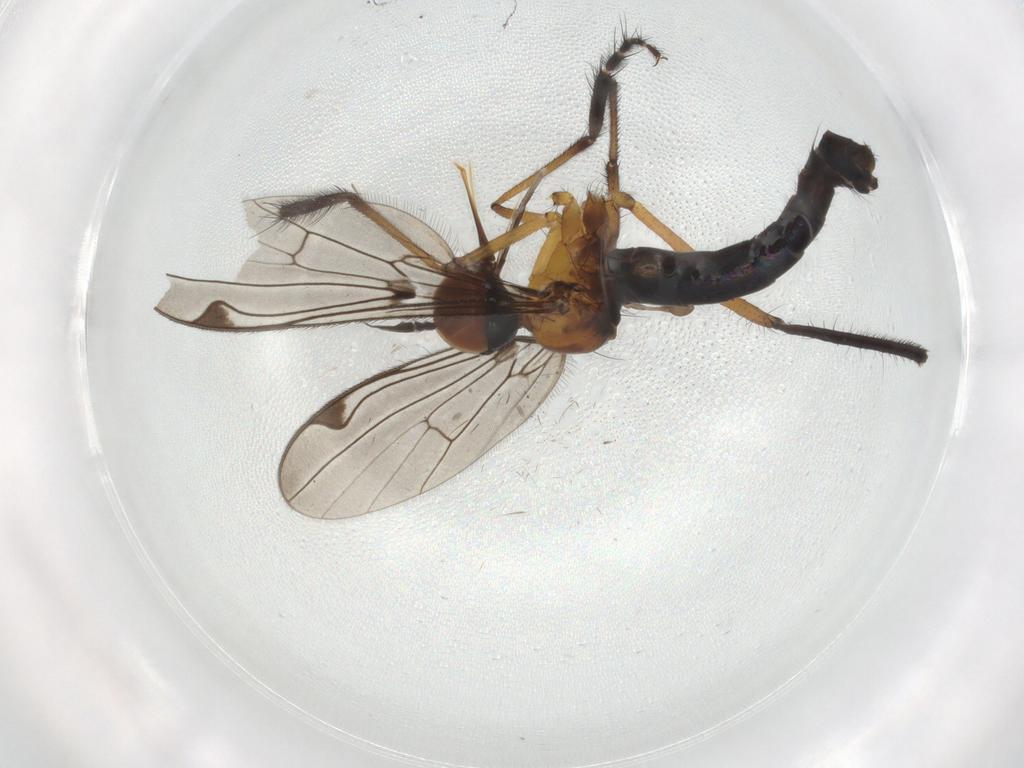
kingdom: Animalia
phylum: Arthropoda
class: Insecta
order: Diptera
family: Empididae
